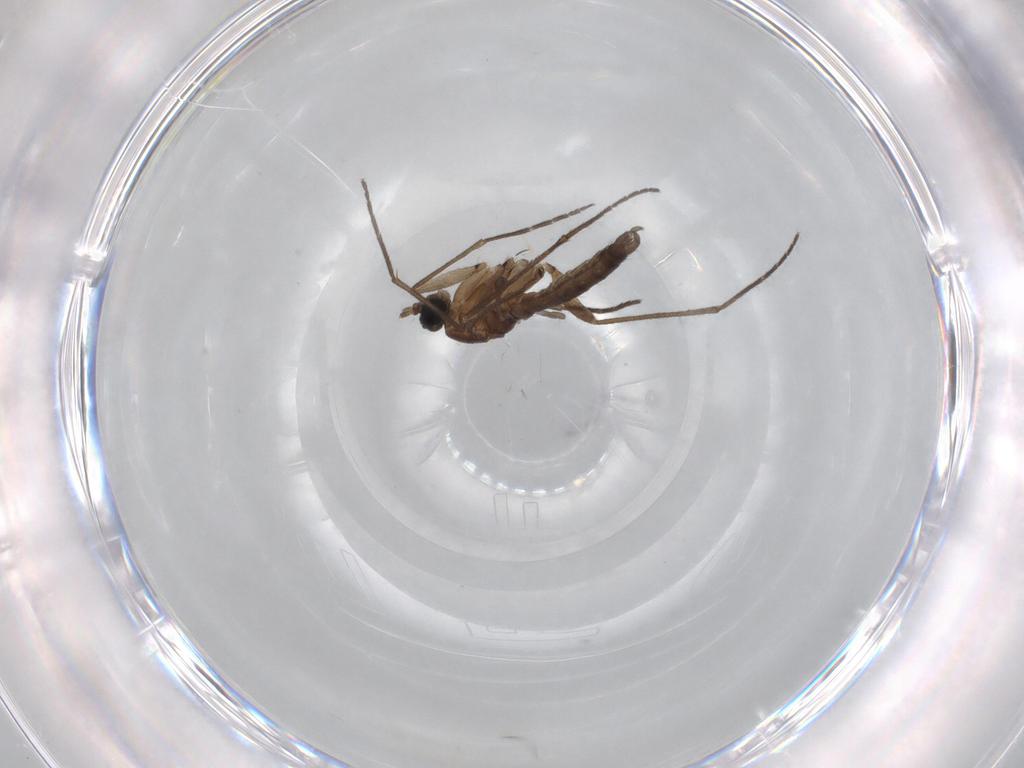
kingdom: Animalia
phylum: Arthropoda
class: Insecta
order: Diptera
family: Sciaridae
